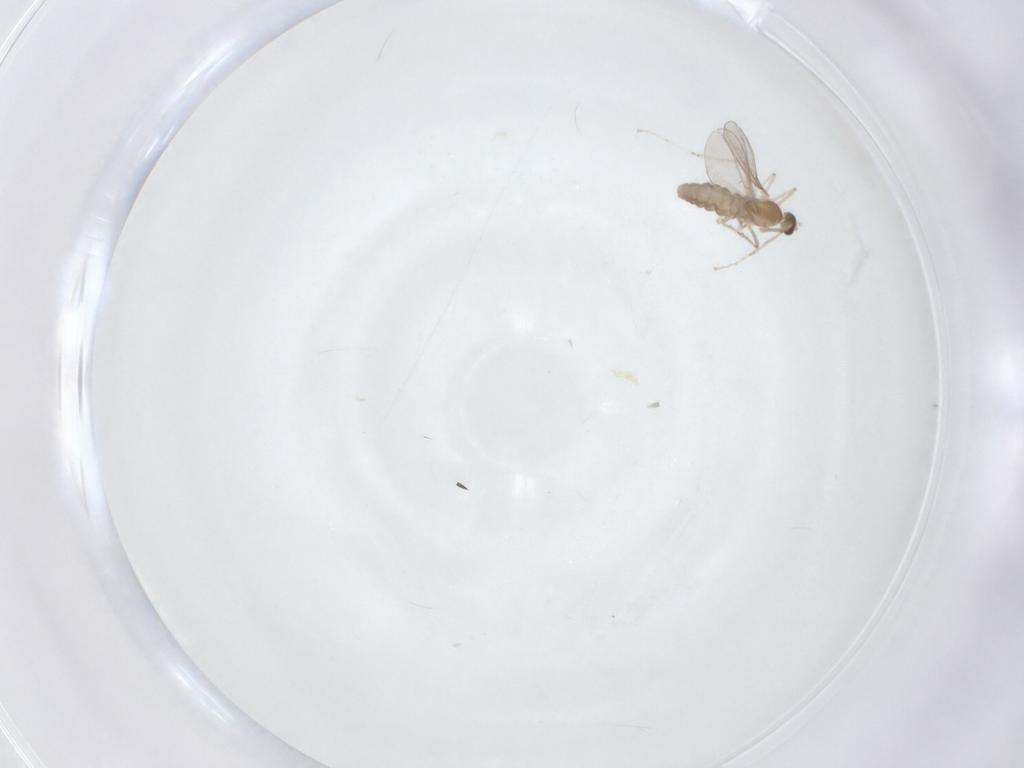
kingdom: Animalia
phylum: Arthropoda
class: Insecta
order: Diptera
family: Cecidomyiidae
